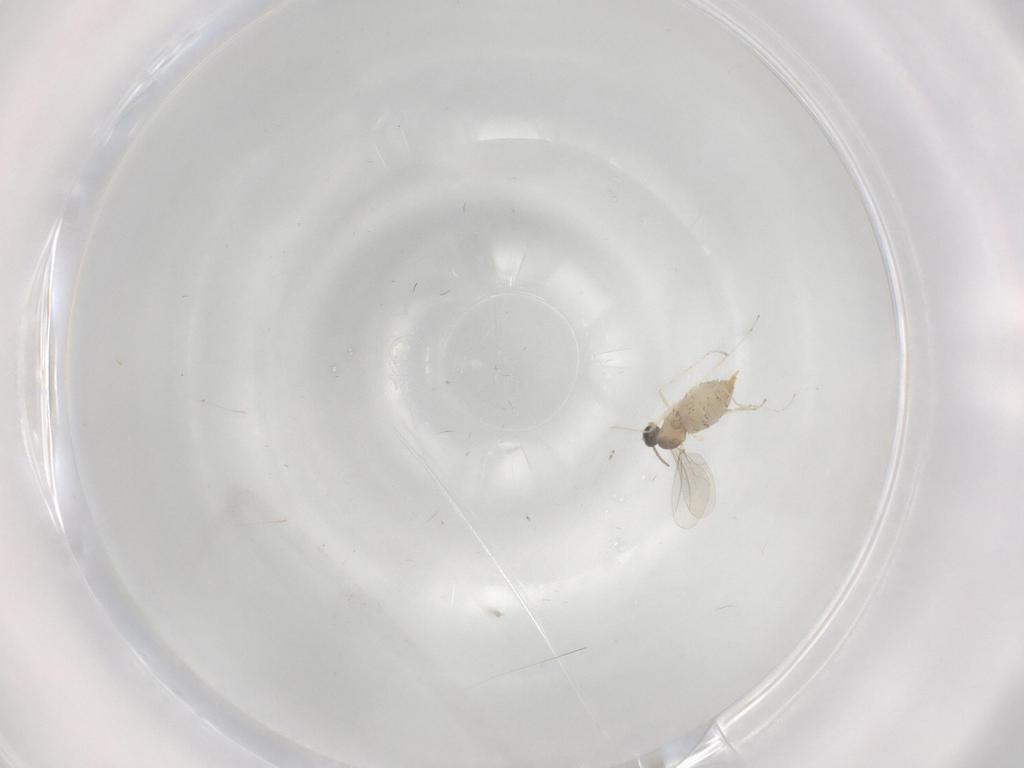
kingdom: Animalia
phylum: Arthropoda
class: Insecta
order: Diptera
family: Cecidomyiidae
